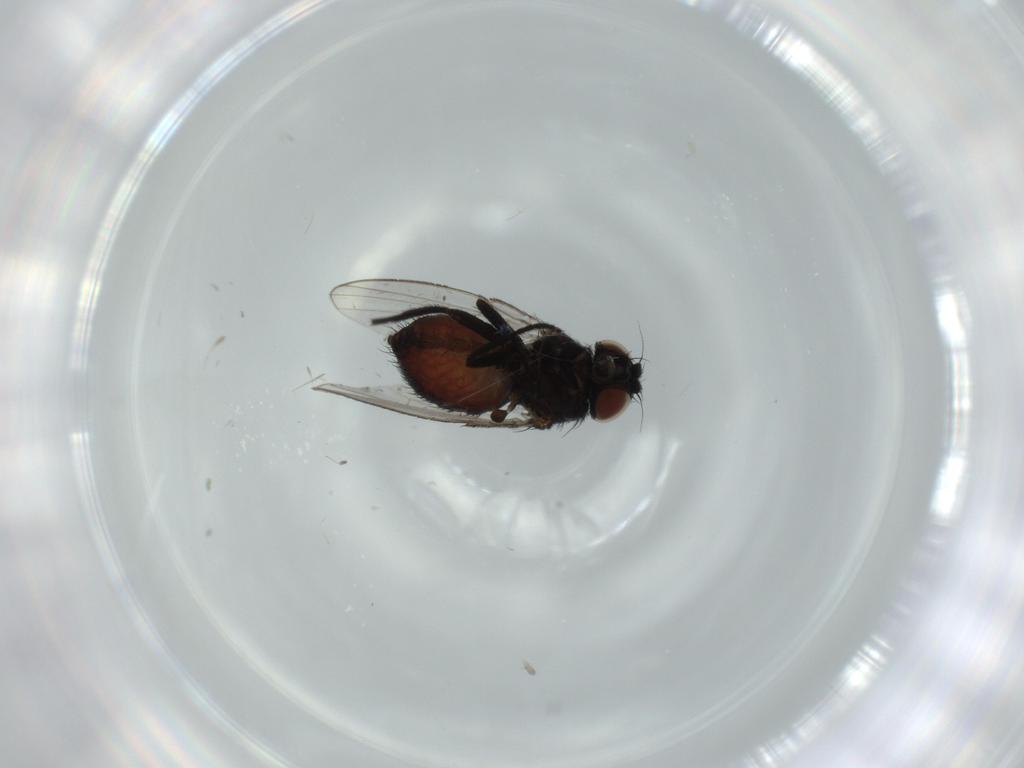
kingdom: Animalia
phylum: Arthropoda
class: Insecta
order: Diptera
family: Milichiidae
